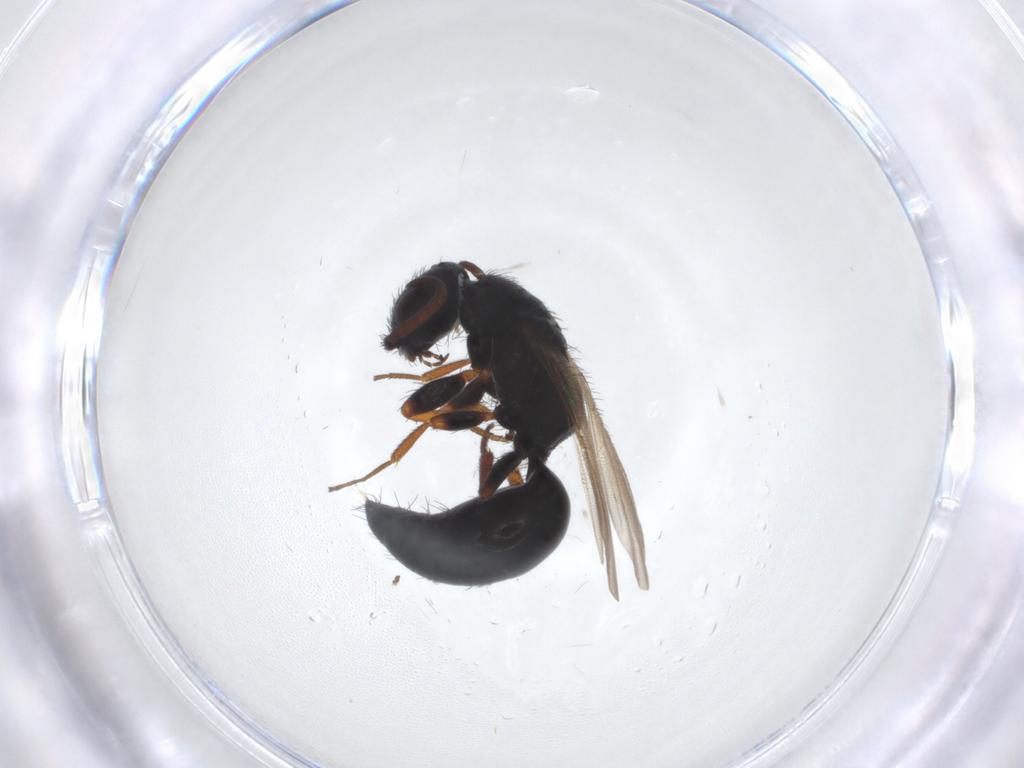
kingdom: Animalia
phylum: Arthropoda
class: Insecta
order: Hymenoptera
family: Bethylidae
